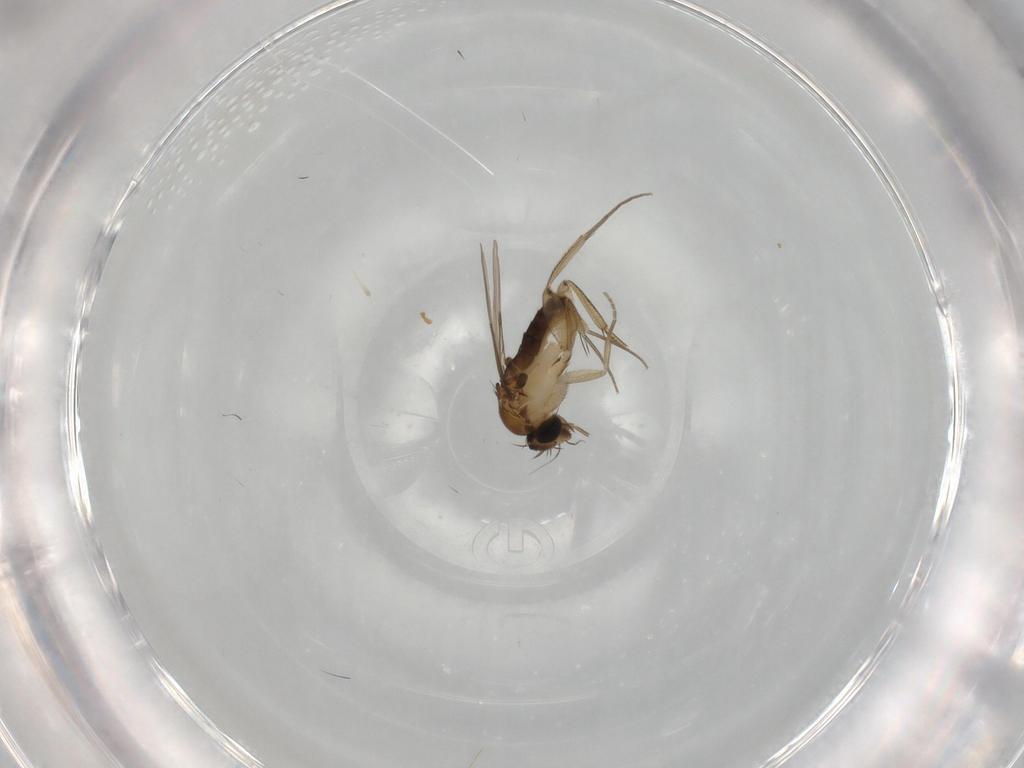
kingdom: Animalia
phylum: Arthropoda
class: Insecta
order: Diptera
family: Phoridae
